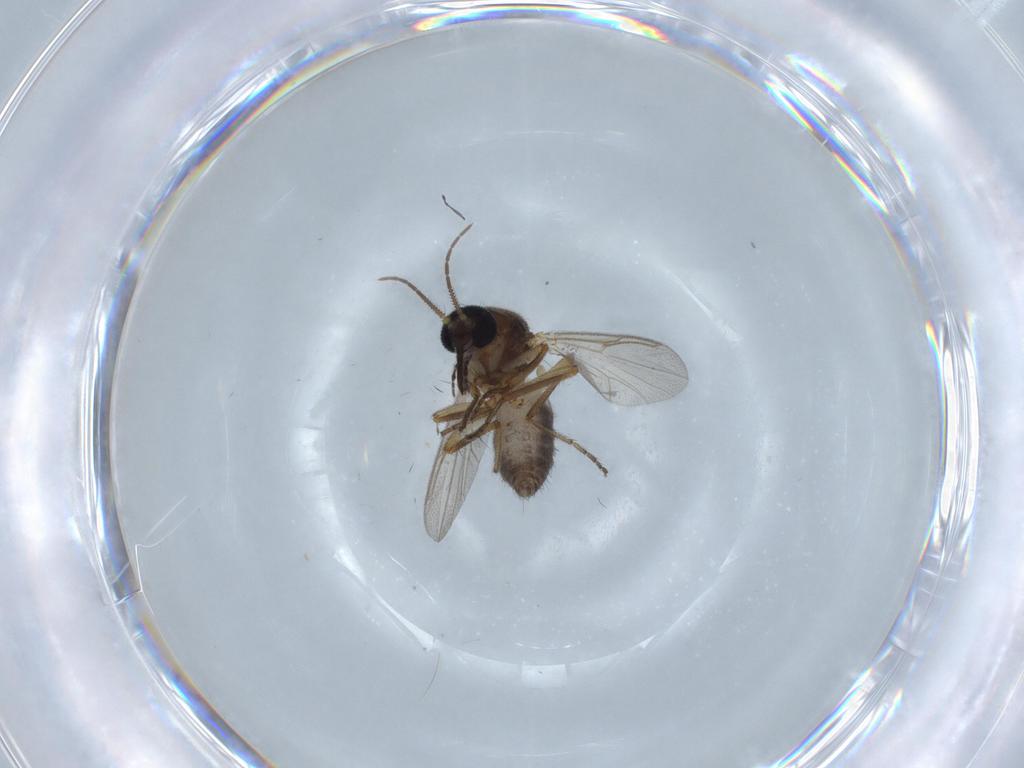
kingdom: Animalia
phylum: Arthropoda
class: Insecta
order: Diptera
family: Ceratopogonidae
